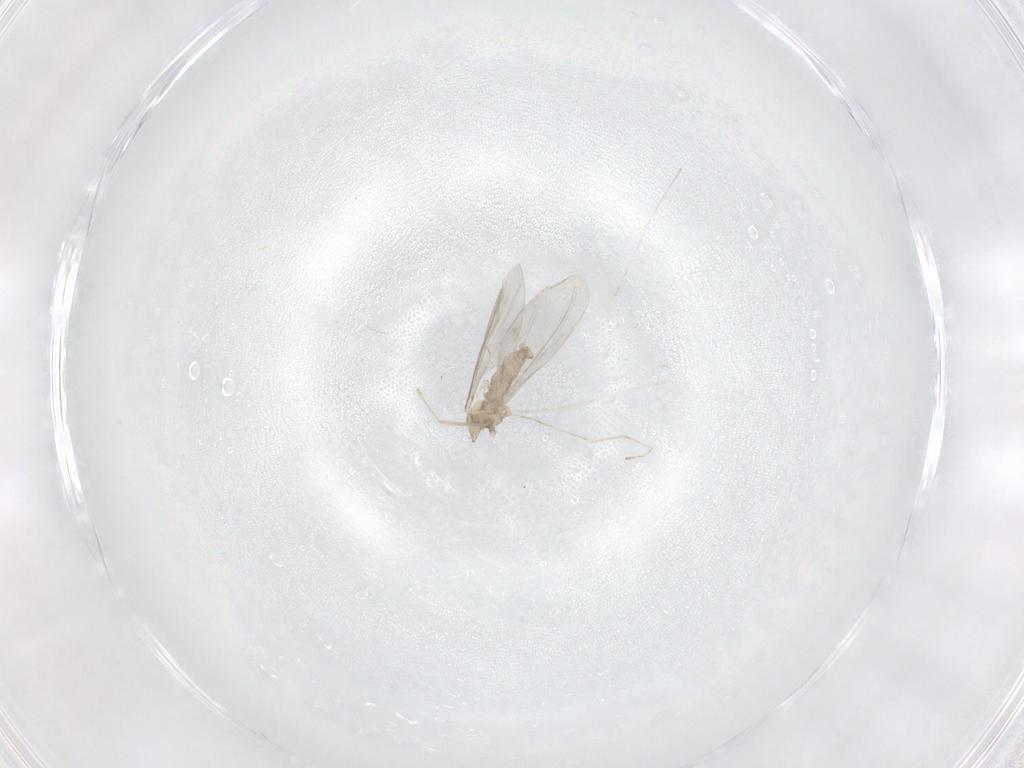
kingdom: Animalia
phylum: Arthropoda
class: Insecta
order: Diptera
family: Cecidomyiidae
